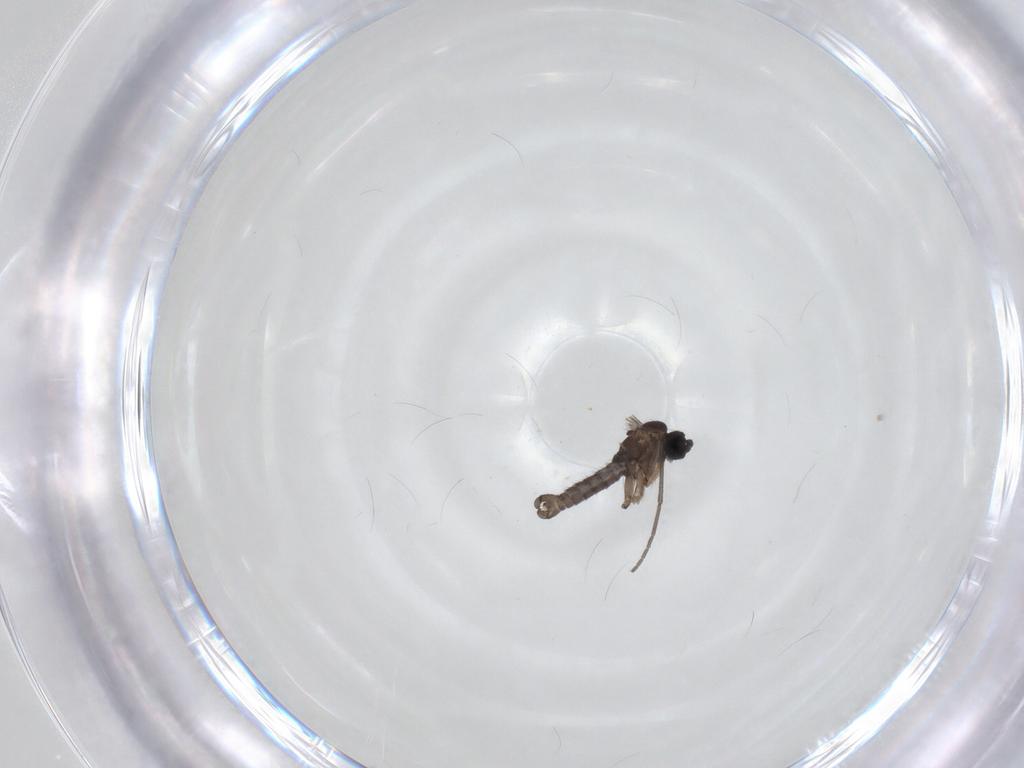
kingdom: Animalia
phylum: Arthropoda
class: Insecta
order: Diptera
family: Sciaridae
